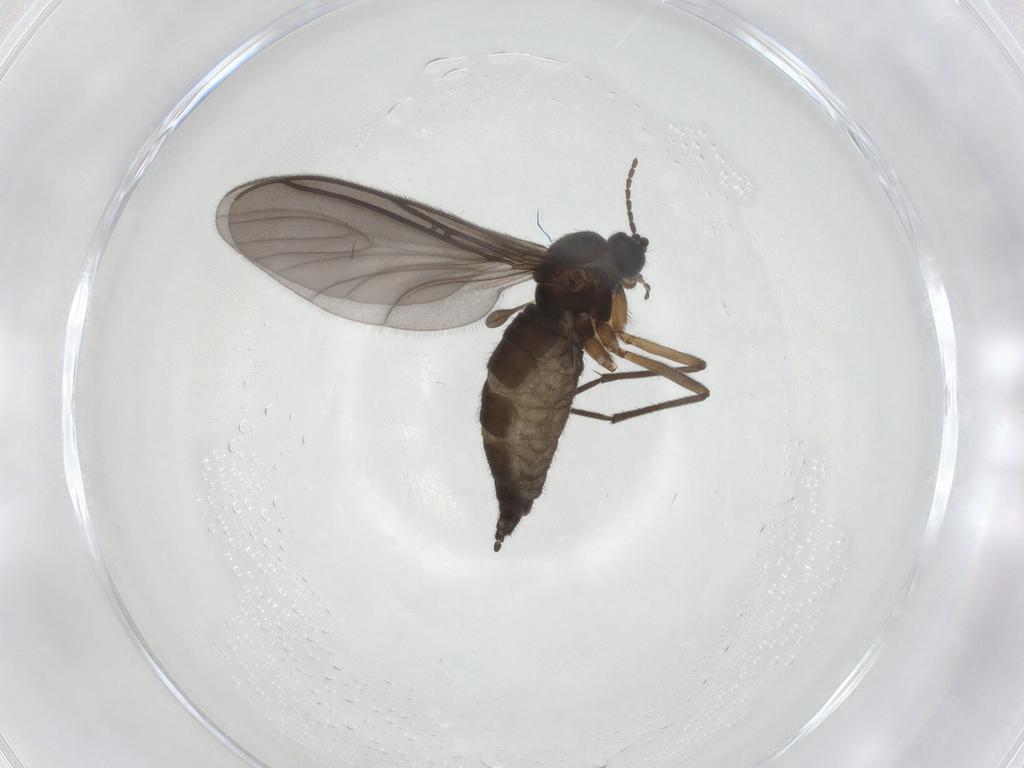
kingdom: Animalia
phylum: Arthropoda
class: Insecta
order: Diptera
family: Sciaridae
